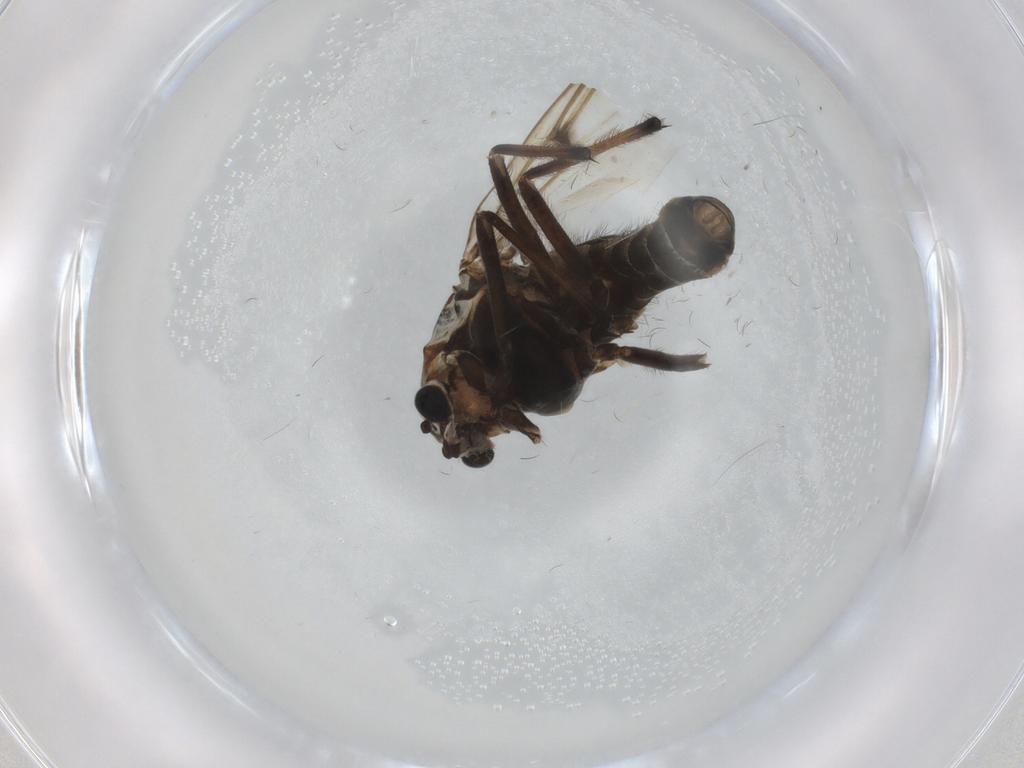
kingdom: Animalia
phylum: Arthropoda
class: Insecta
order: Diptera
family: Chironomidae
